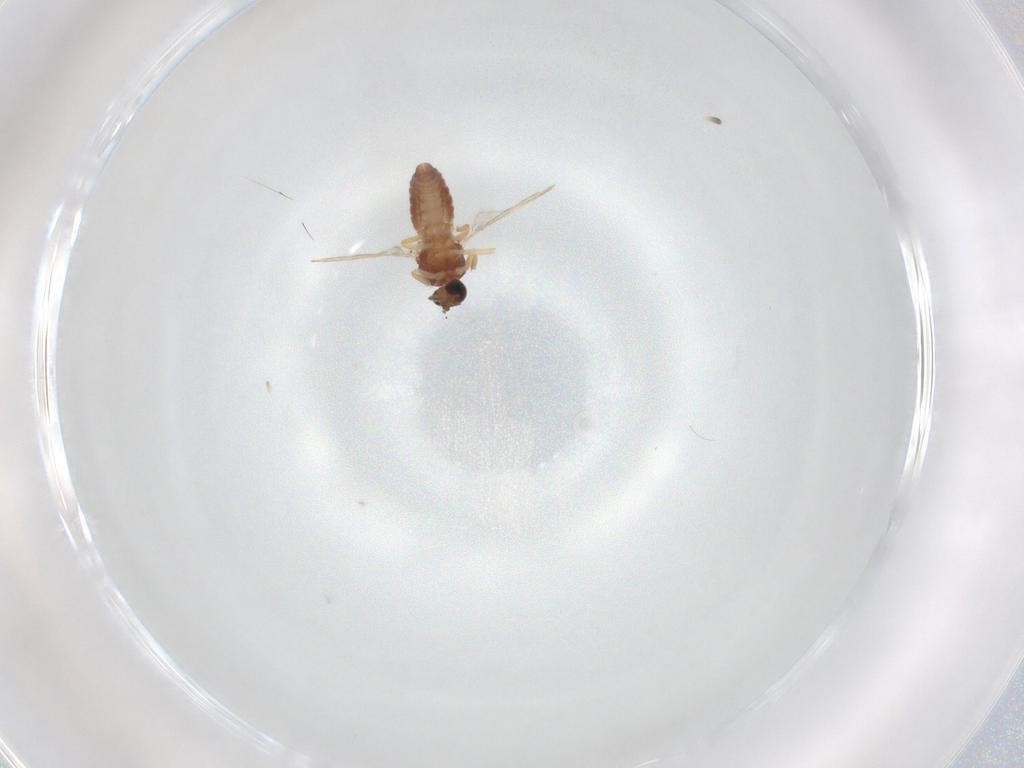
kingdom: Animalia
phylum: Arthropoda
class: Insecta
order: Diptera
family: Ceratopogonidae
